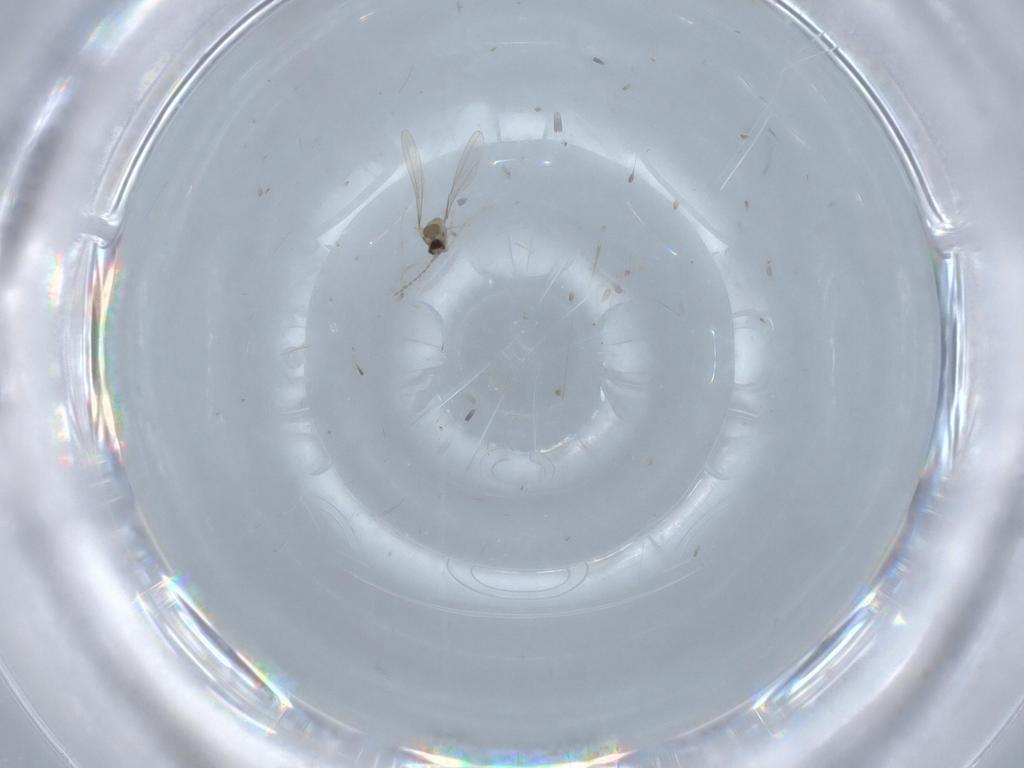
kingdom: Animalia
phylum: Arthropoda
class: Insecta
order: Diptera
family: Cecidomyiidae
